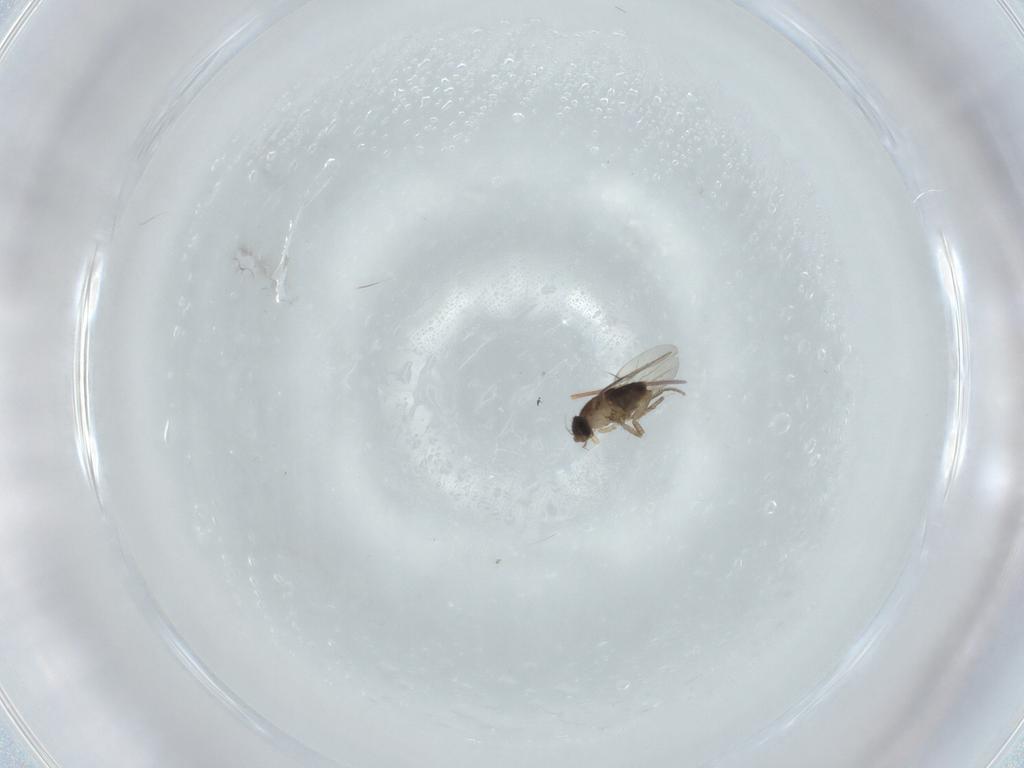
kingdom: Animalia
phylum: Arthropoda
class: Insecta
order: Diptera
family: Phoridae
